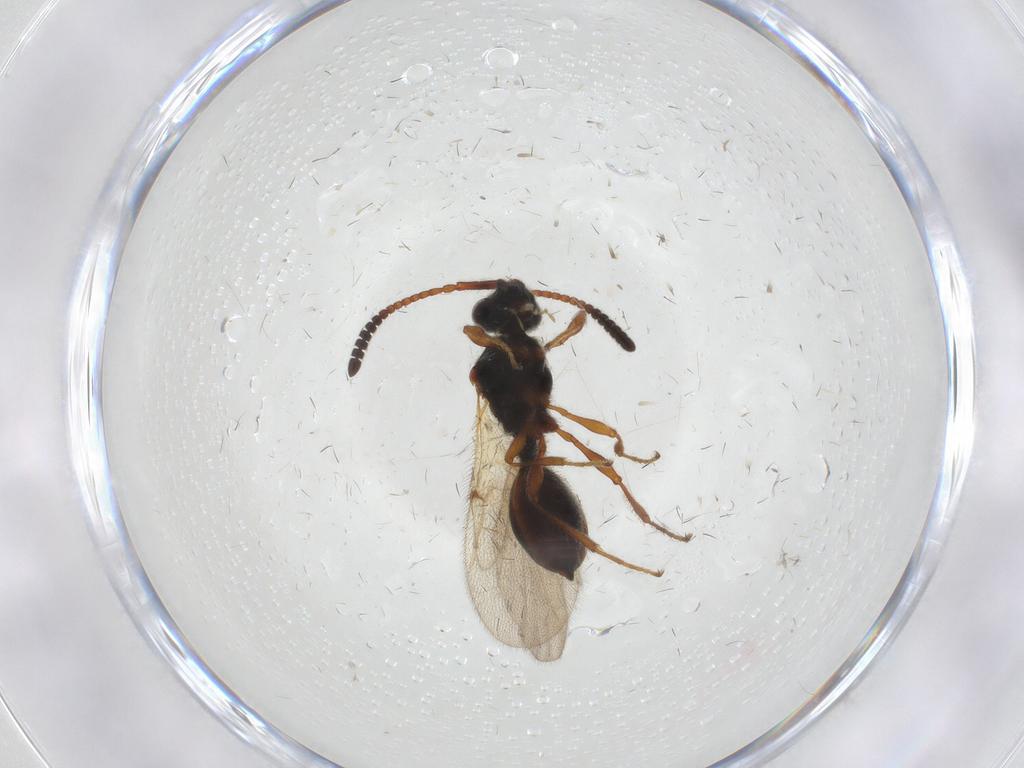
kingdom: Animalia
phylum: Arthropoda
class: Insecta
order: Hymenoptera
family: Diapriidae
